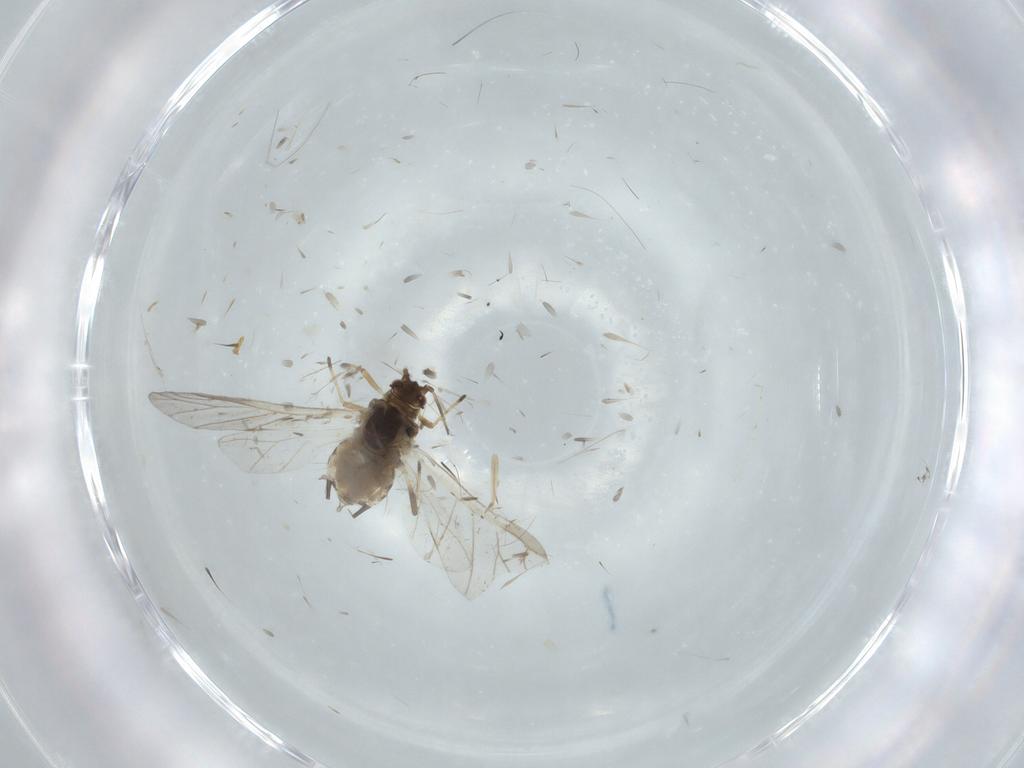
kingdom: Animalia
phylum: Arthropoda
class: Insecta
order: Hemiptera
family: Aphididae
